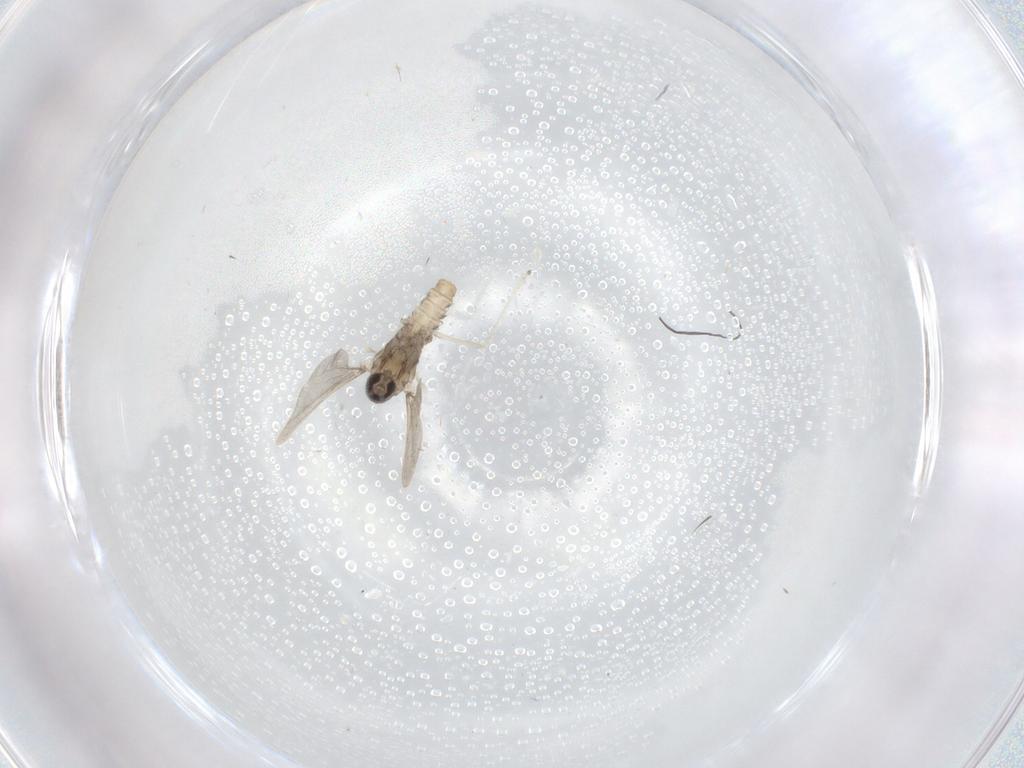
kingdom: Animalia
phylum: Arthropoda
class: Insecta
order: Diptera
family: Cecidomyiidae
